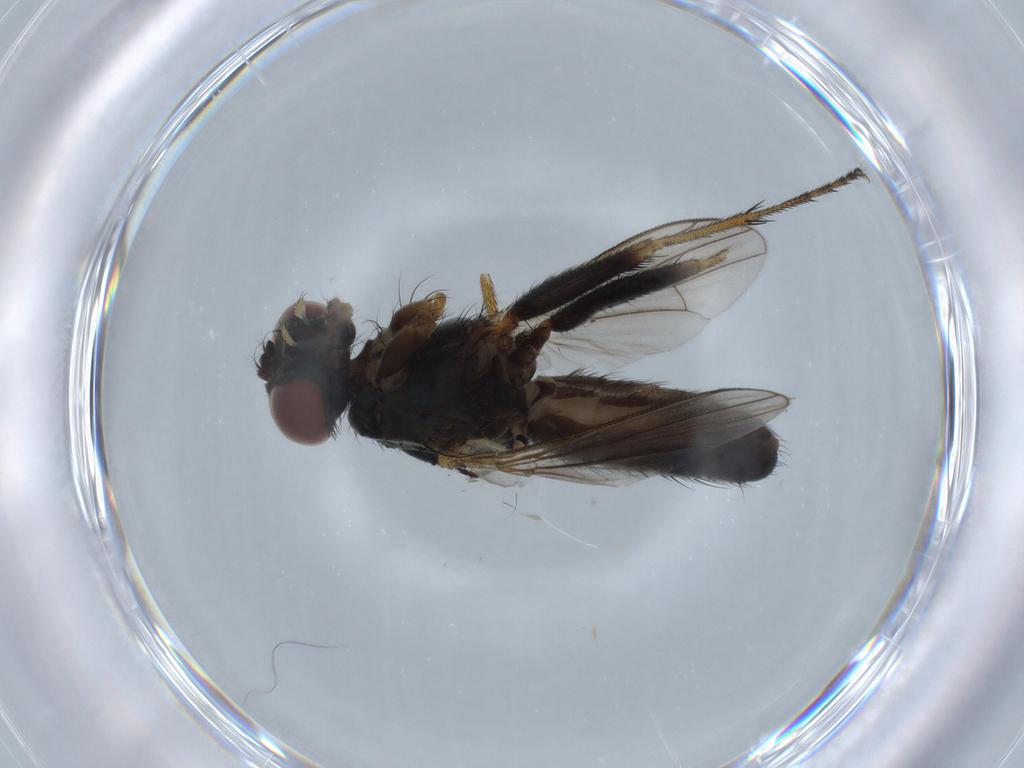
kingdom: Animalia
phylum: Arthropoda
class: Insecta
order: Diptera
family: Muscidae
